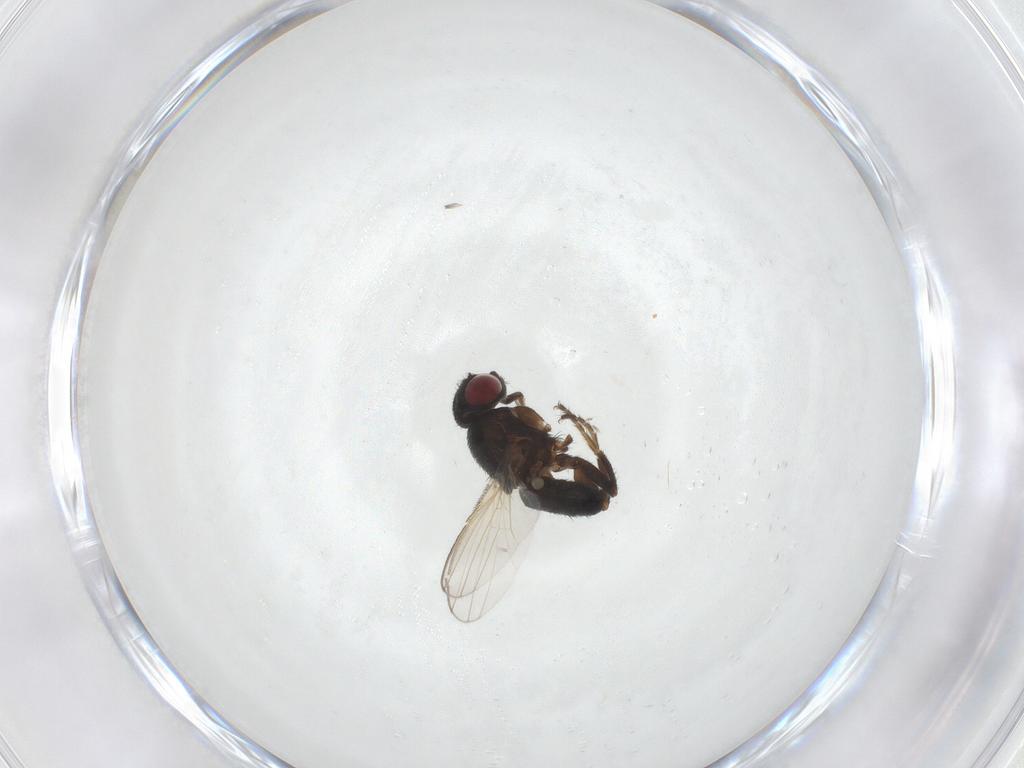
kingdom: Animalia
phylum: Arthropoda
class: Insecta
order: Diptera
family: Milichiidae
